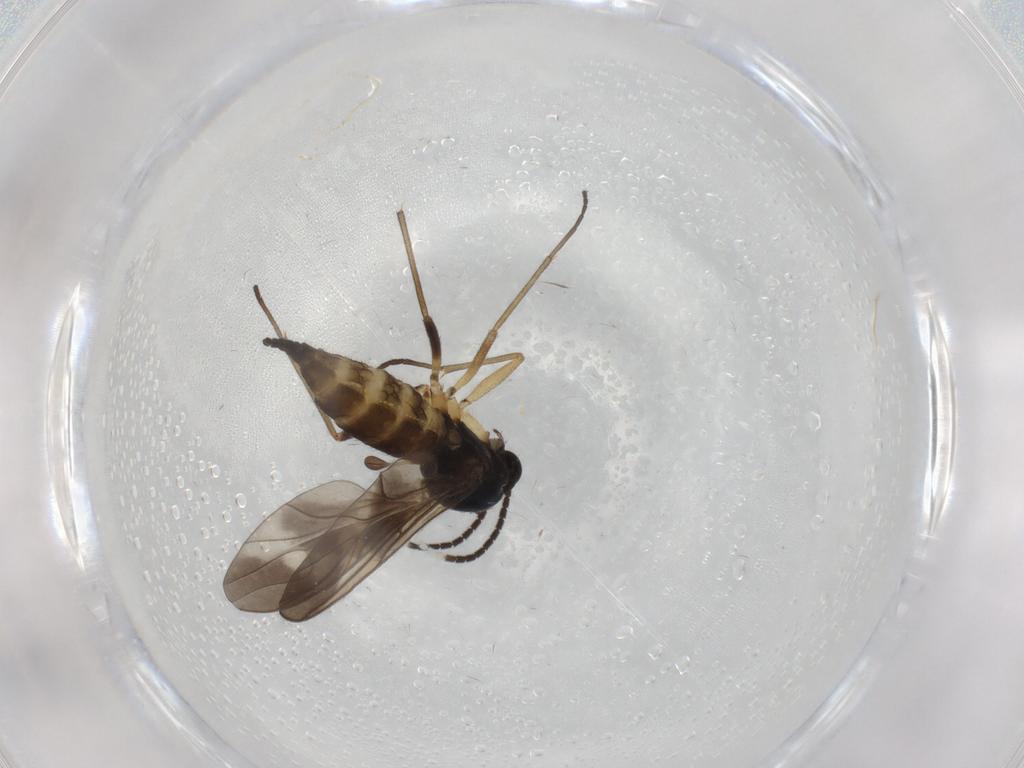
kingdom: Animalia
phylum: Arthropoda
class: Insecta
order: Diptera
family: Sciaridae
